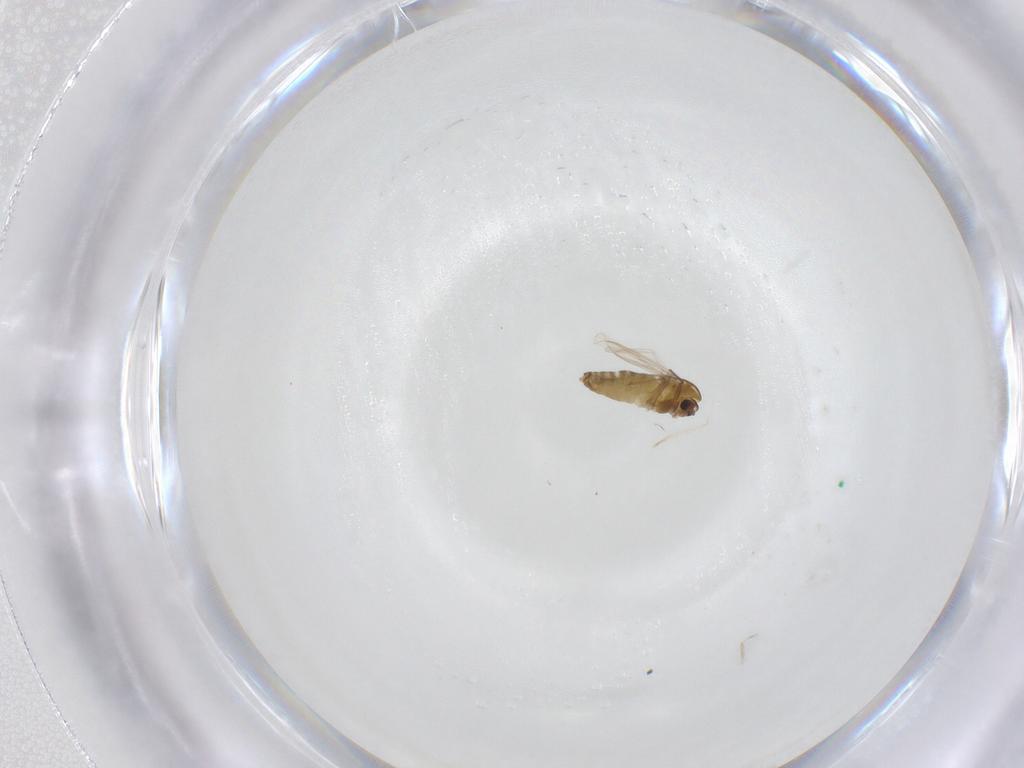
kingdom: Animalia
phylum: Arthropoda
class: Insecta
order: Diptera
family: Chironomidae
